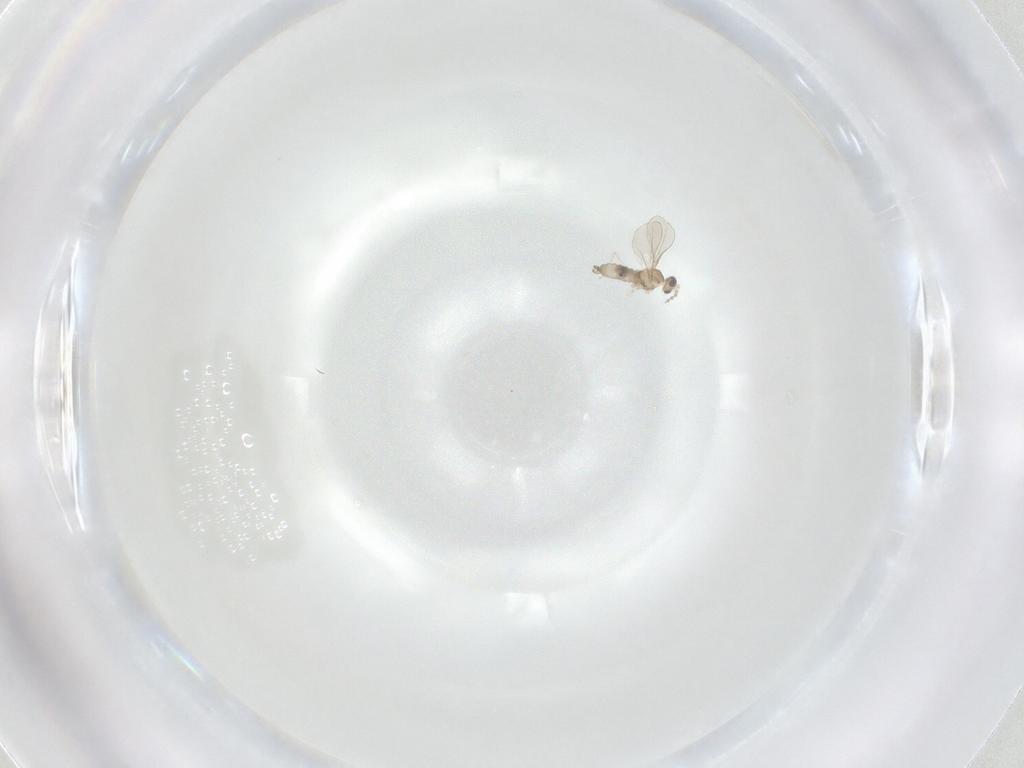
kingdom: Animalia
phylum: Arthropoda
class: Insecta
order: Diptera
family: Cecidomyiidae
